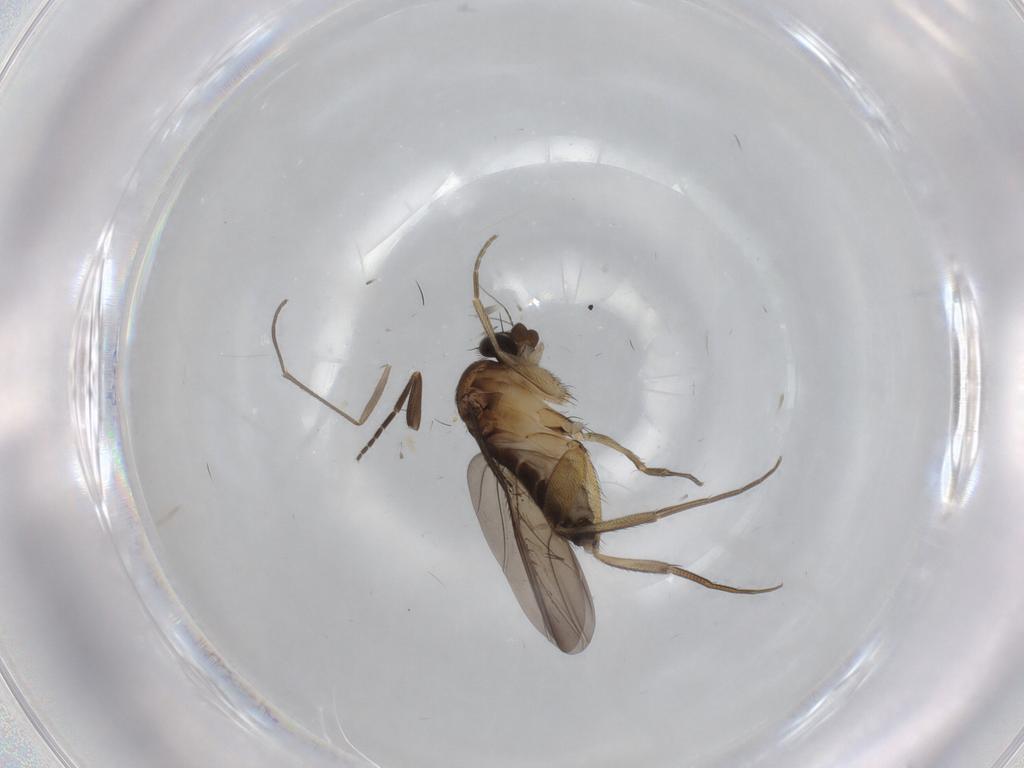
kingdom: Animalia
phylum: Arthropoda
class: Insecta
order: Diptera
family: Phoridae
